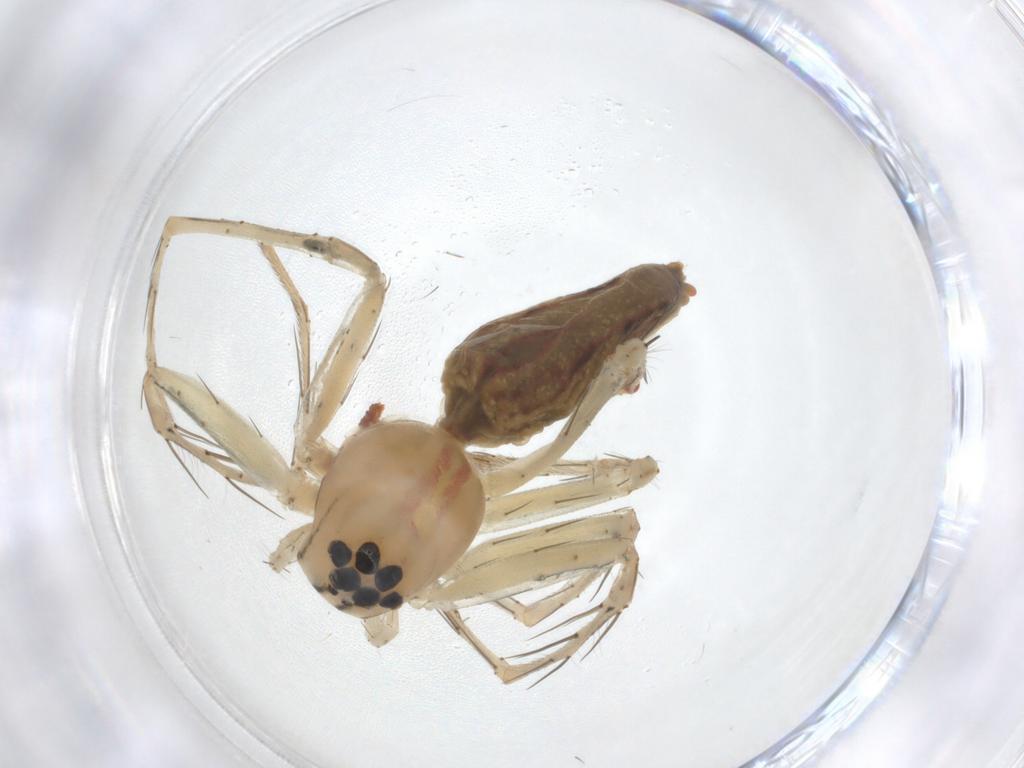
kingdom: Animalia
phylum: Arthropoda
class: Arachnida
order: Araneae
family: Oxyopidae
